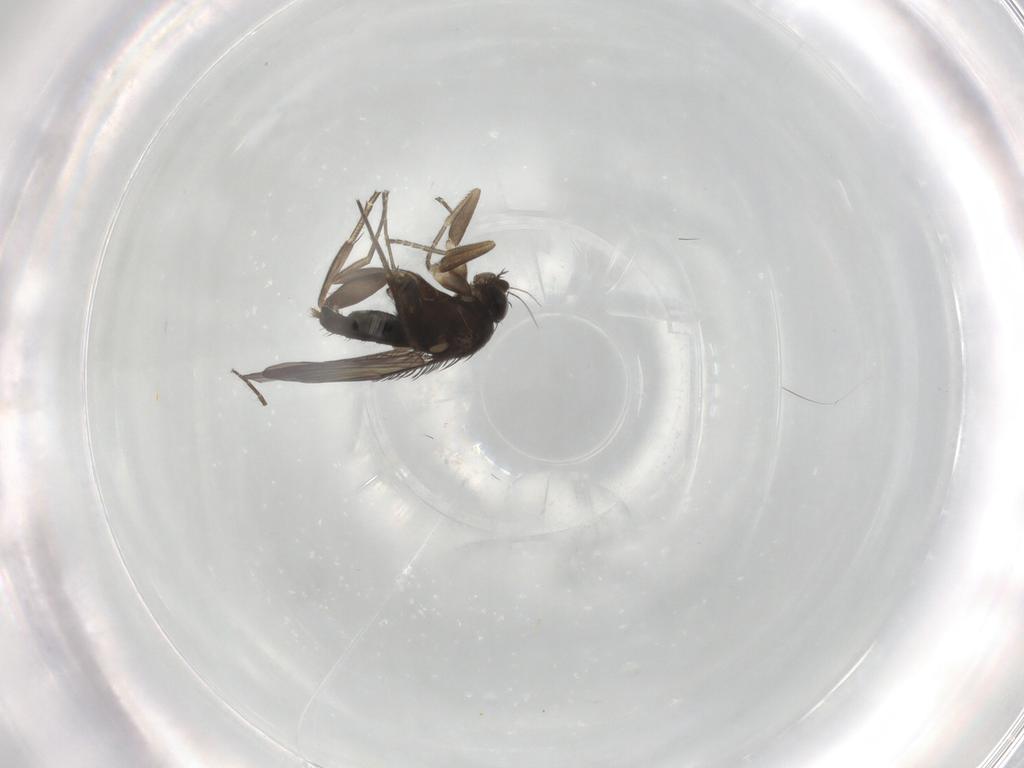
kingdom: Animalia
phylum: Arthropoda
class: Insecta
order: Diptera
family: Phoridae
